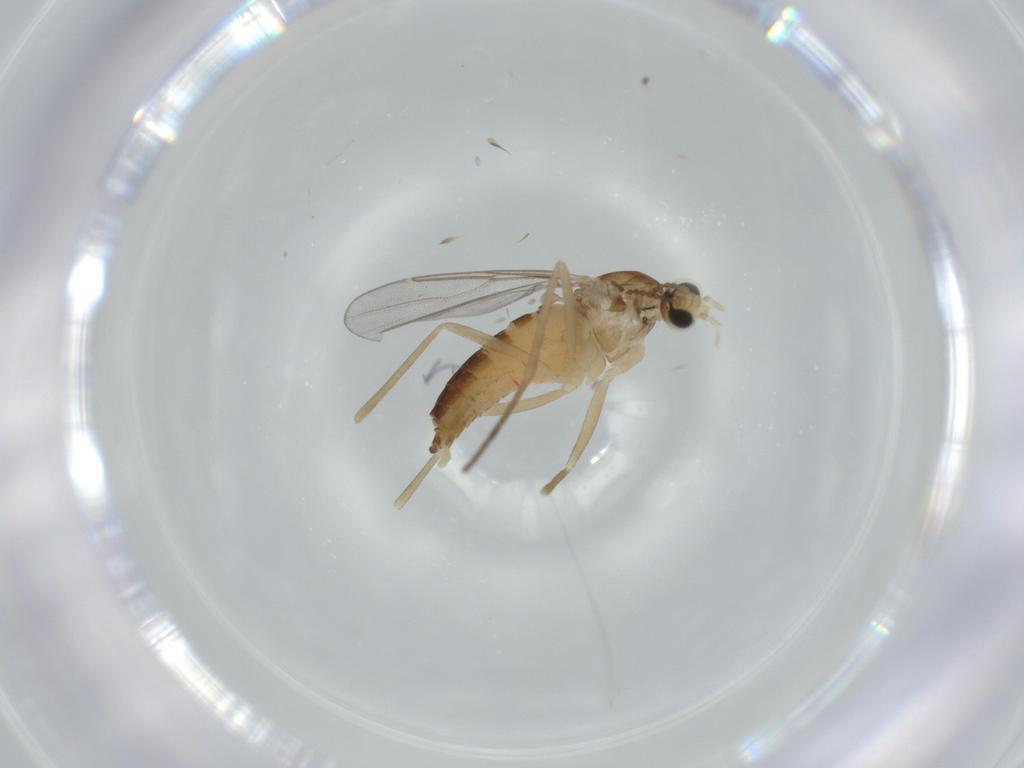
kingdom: Animalia
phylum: Arthropoda
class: Insecta
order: Diptera
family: Cecidomyiidae
